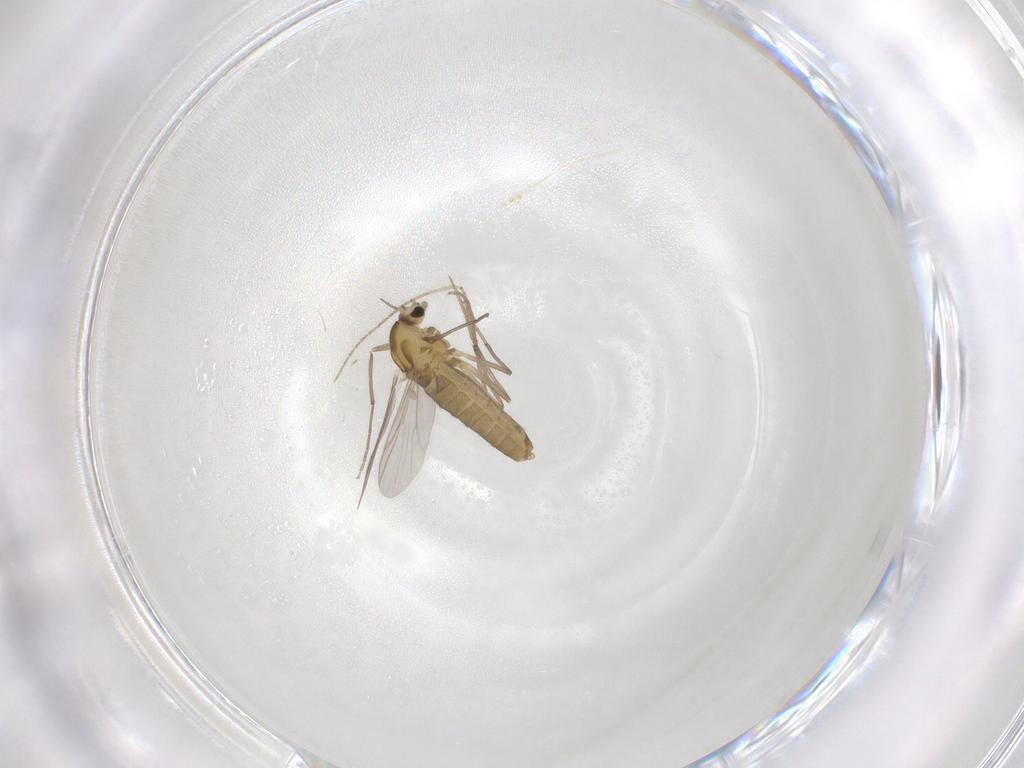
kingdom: Animalia
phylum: Arthropoda
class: Insecta
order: Diptera
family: Chironomidae
